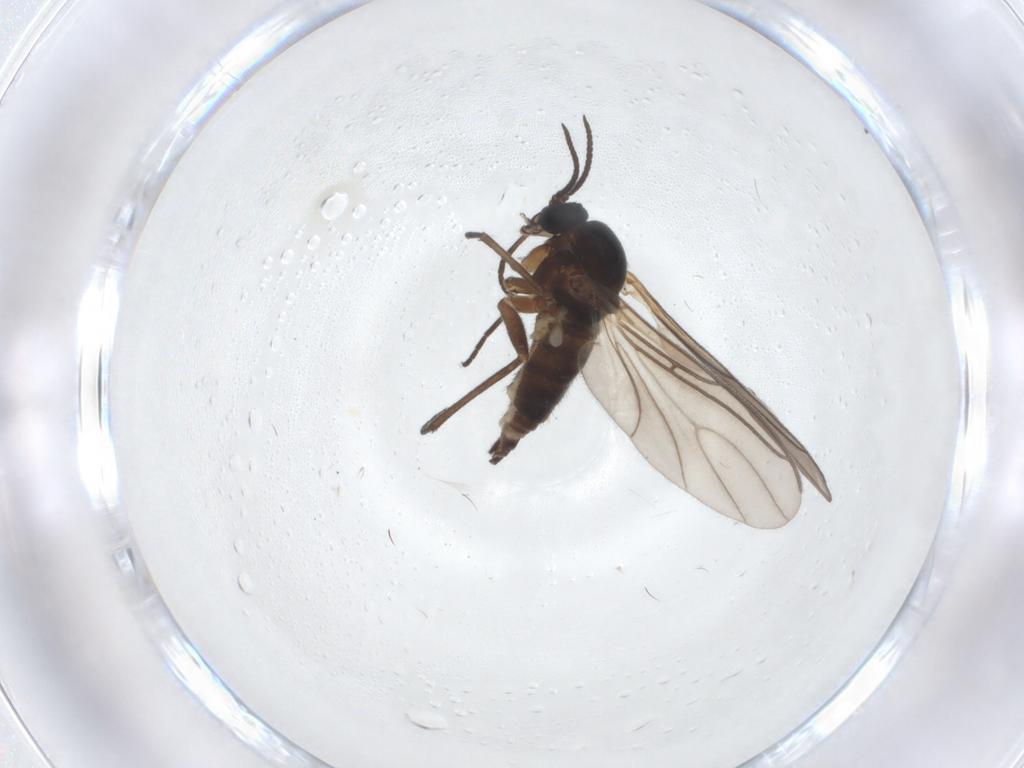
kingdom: Animalia
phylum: Arthropoda
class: Insecta
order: Diptera
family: Sciaridae
